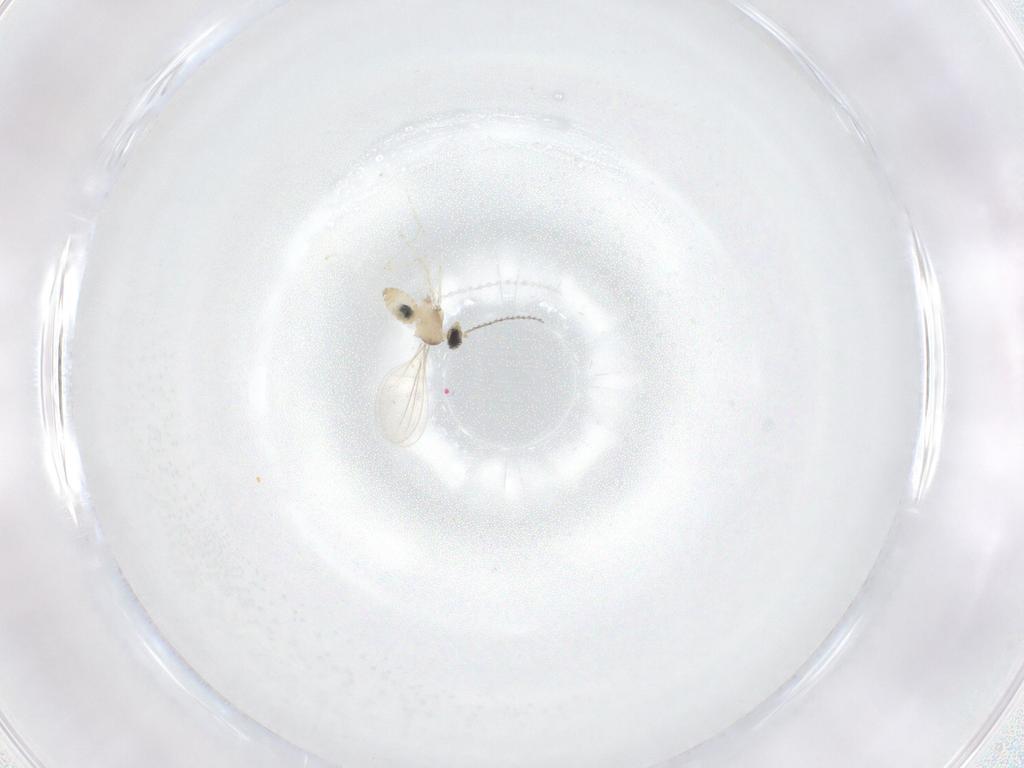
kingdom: Animalia
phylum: Arthropoda
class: Insecta
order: Diptera
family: Cecidomyiidae
